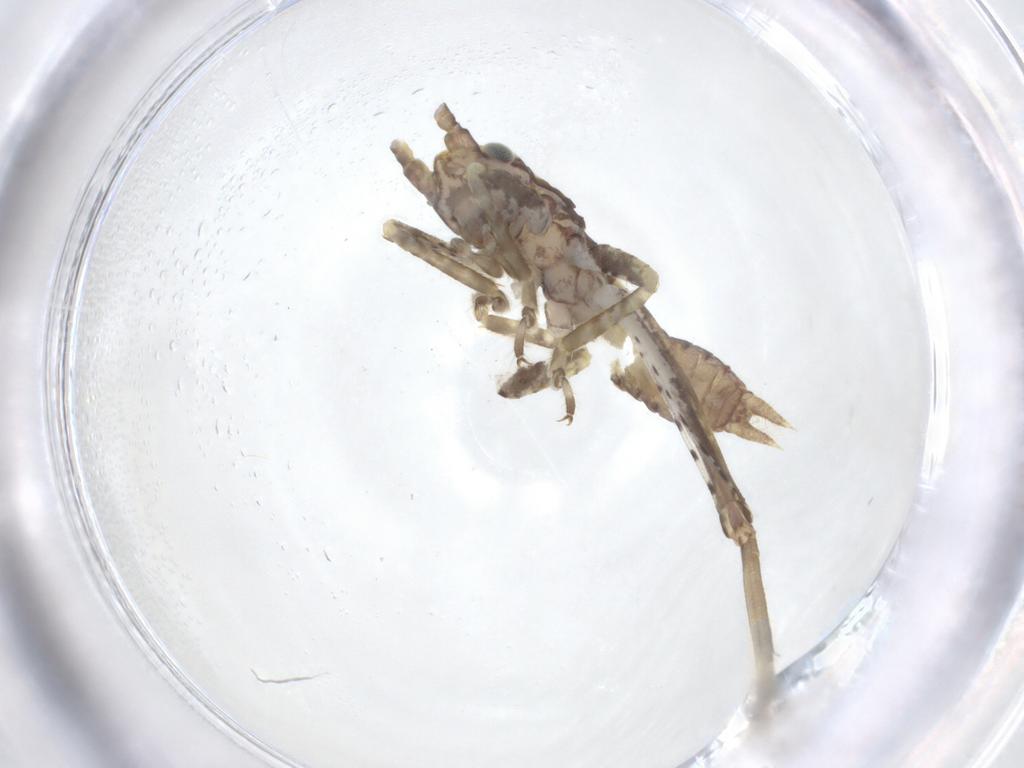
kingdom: Animalia
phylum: Arthropoda
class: Insecta
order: Orthoptera
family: Gryllidae
